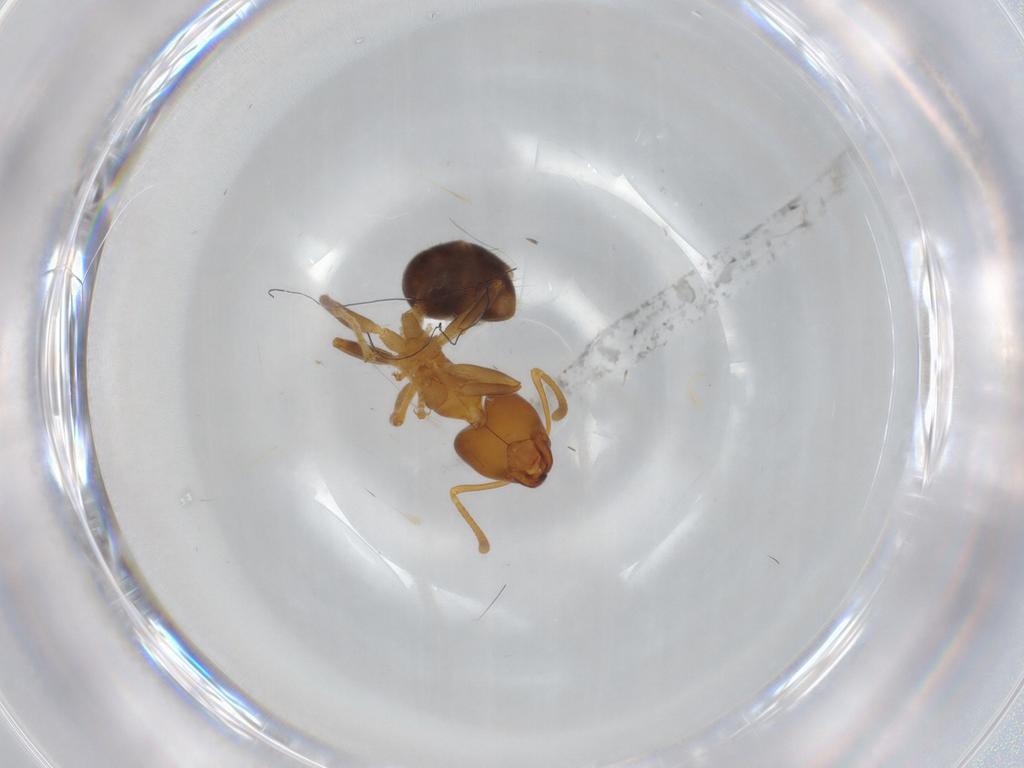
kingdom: Animalia
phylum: Arthropoda
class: Insecta
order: Hymenoptera
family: Formicidae
